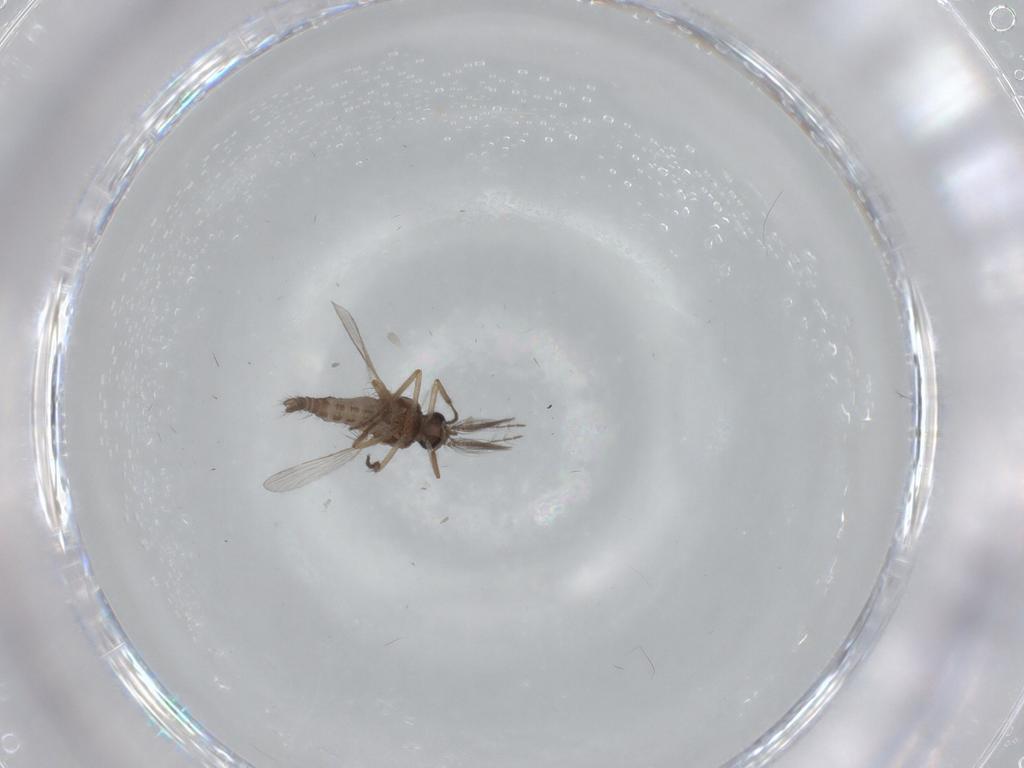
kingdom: Animalia
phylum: Arthropoda
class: Insecta
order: Diptera
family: Ceratopogonidae
